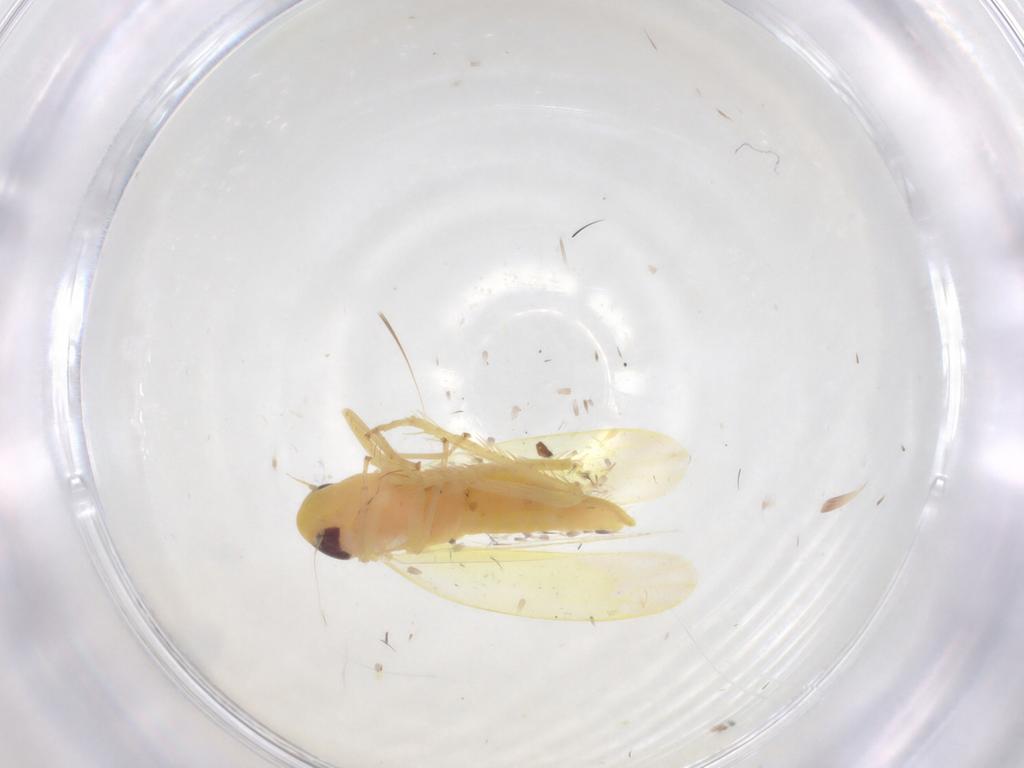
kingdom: Animalia
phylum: Arthropoda
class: Insecta
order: Hemiptera
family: Cicadellidae
